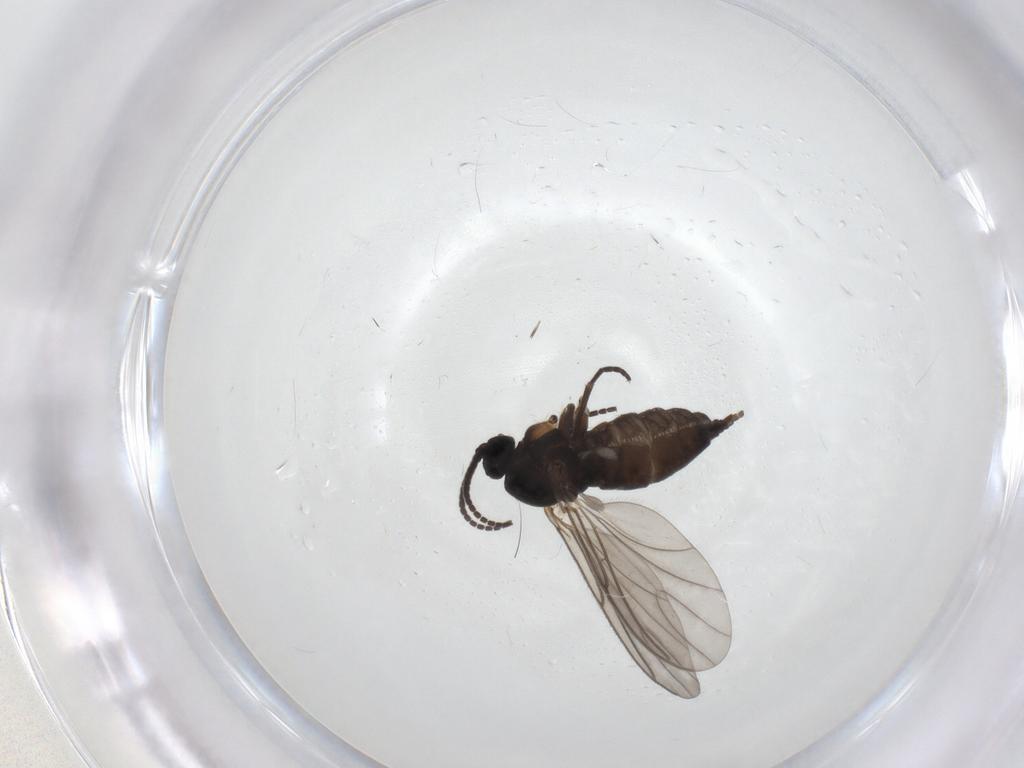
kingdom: Animalia
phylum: Arthropoda
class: Insecta
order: Diptera
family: Sciaridae
